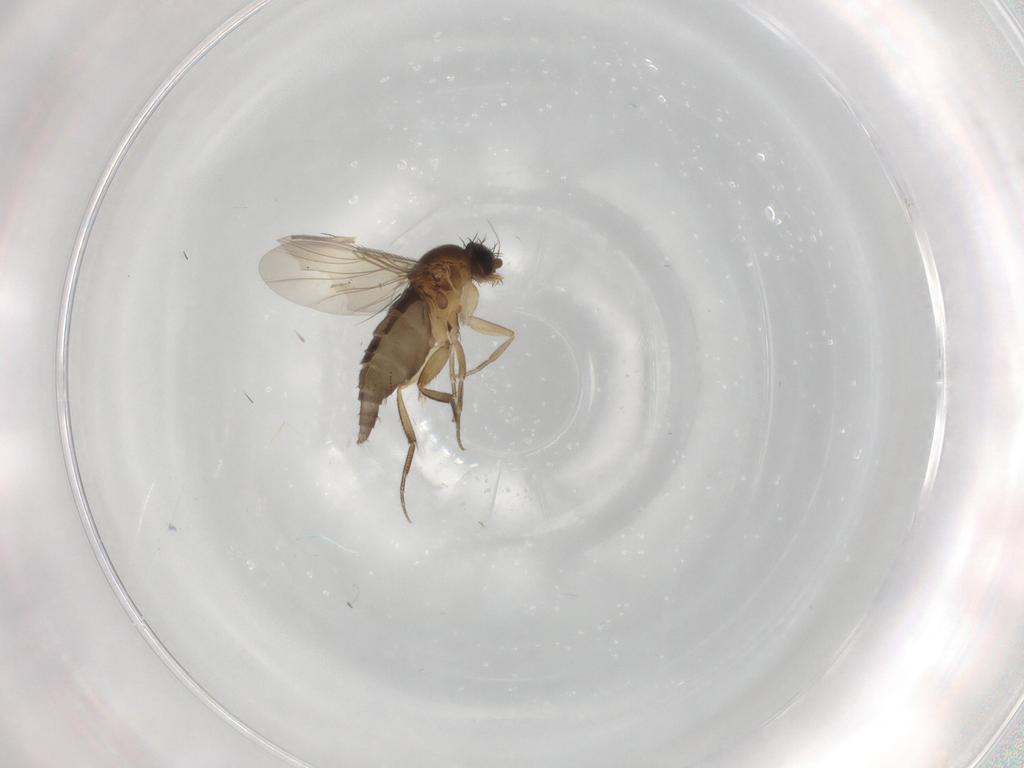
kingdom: Animalia
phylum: Arthropoda
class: Insecta
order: Diptera
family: Phoridae
